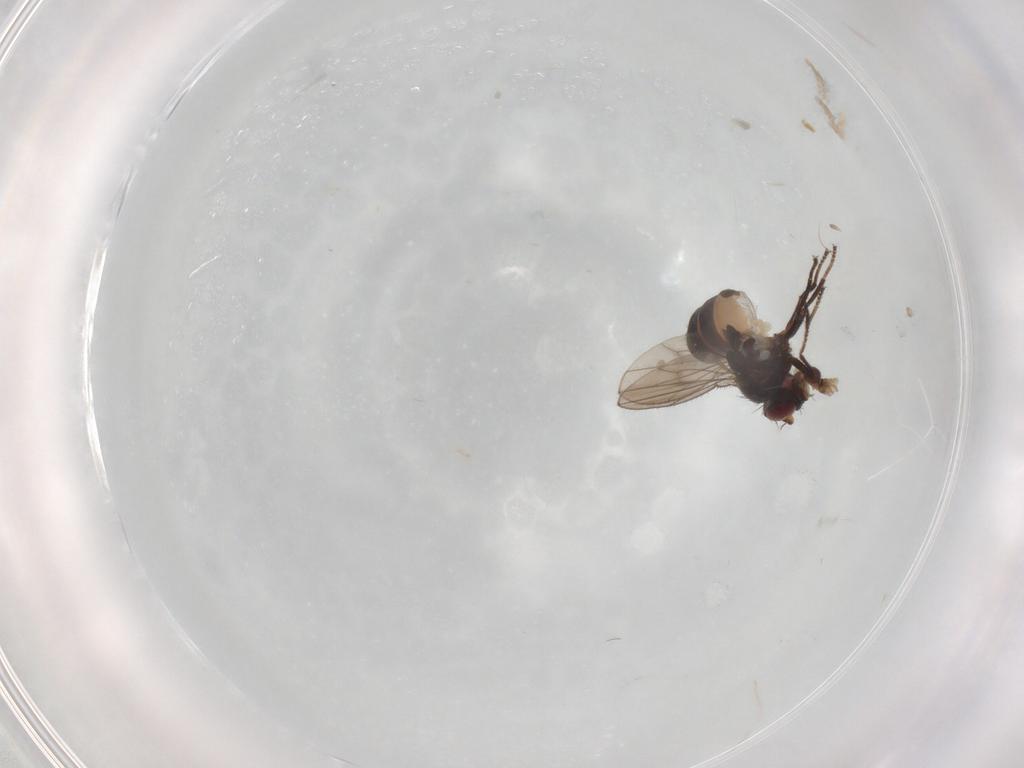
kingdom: Animalia
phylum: Arthropoda
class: Insecta
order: Diptera
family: Ephydridae
